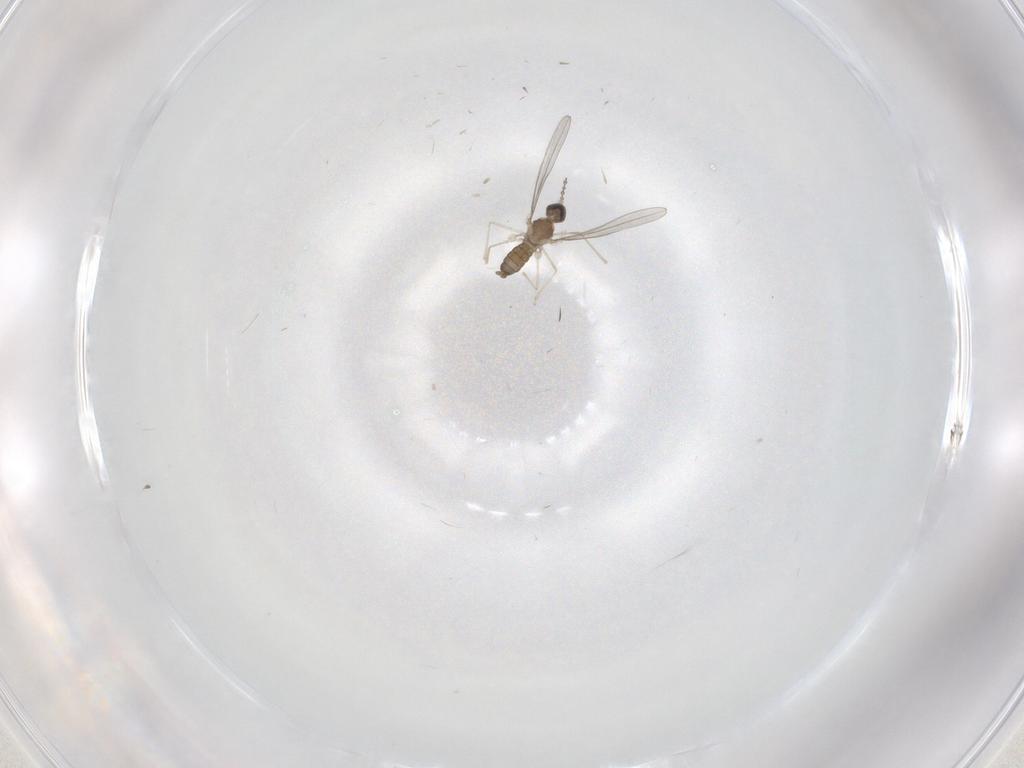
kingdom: Animalia
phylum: Arthropoda
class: Insecta
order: Diptera
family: Cecidomyiidae
